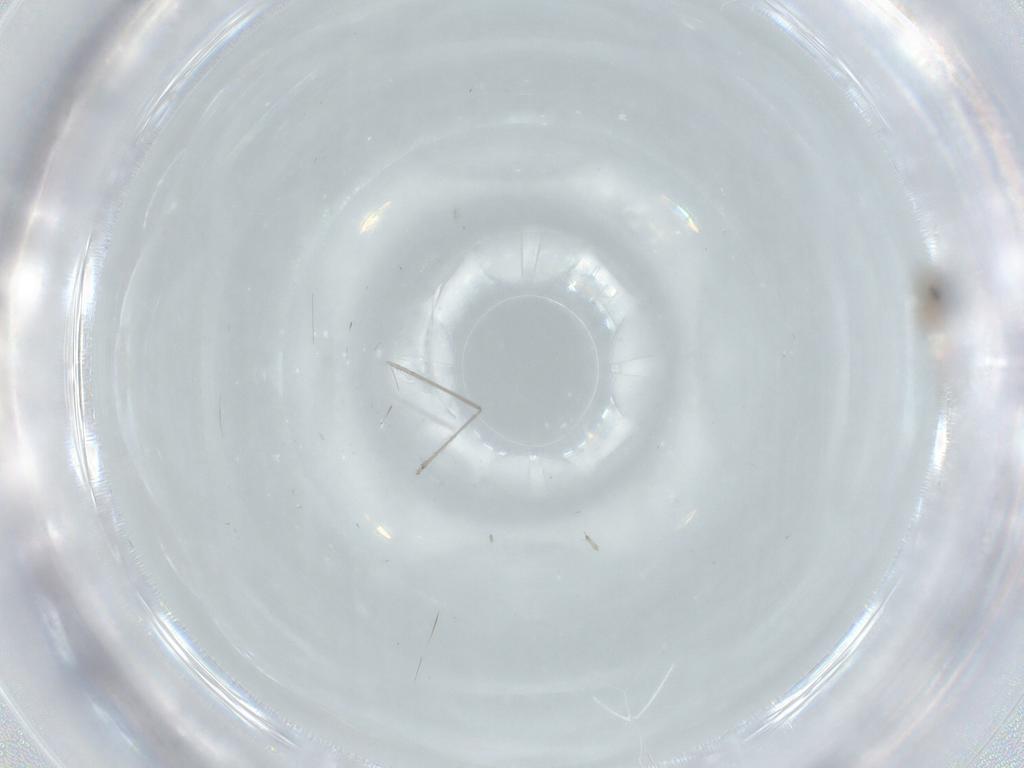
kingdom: Animalia
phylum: Arthropoda
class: Insecta
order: Diptera
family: Cecidomyiidae
